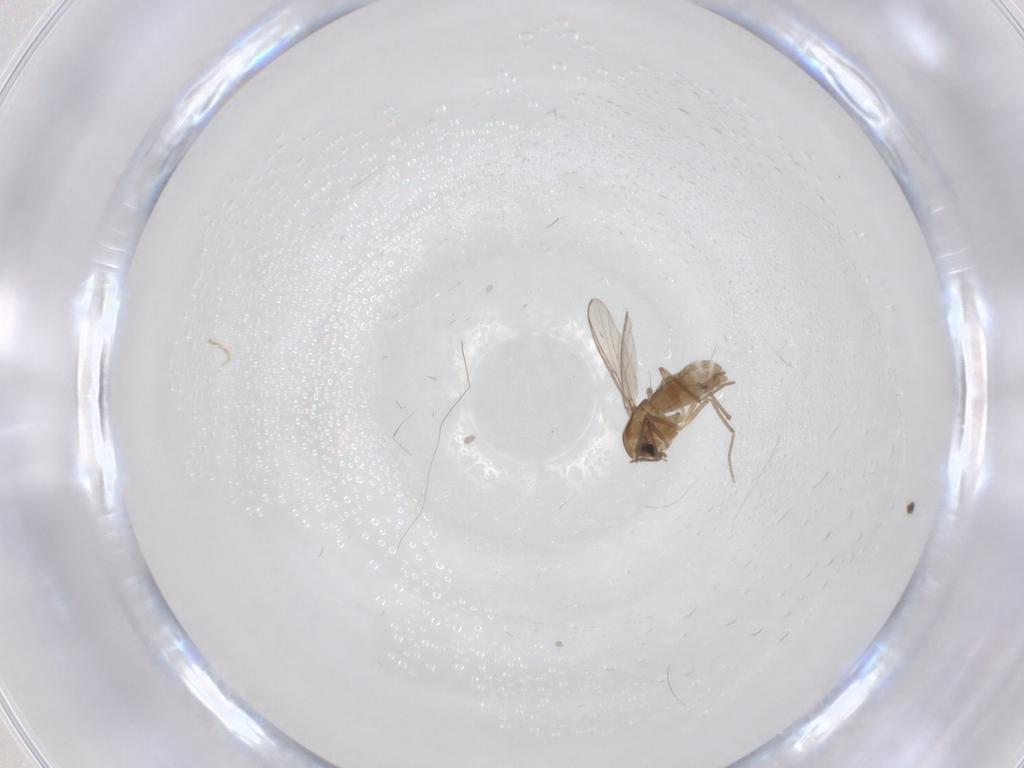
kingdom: Animalia
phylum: Arthropoda
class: Insecta
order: Diptera
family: Chironomidae
